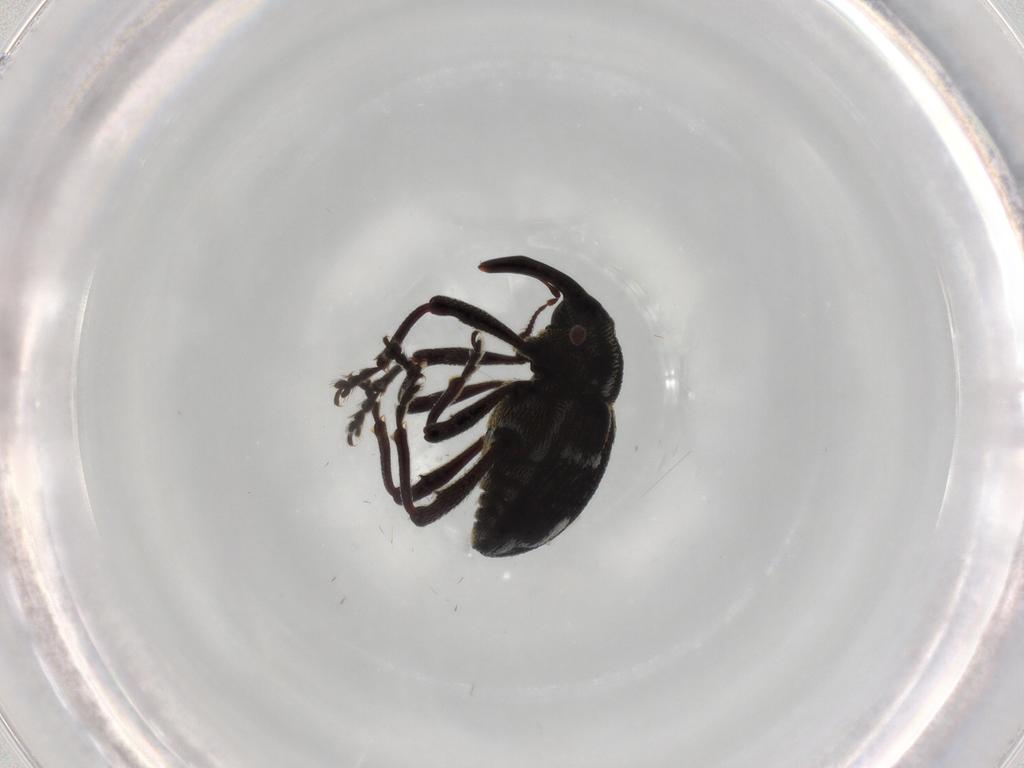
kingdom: Animalia
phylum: Arthropoda
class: Insecta
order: Coleoptera
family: Curculionidae
